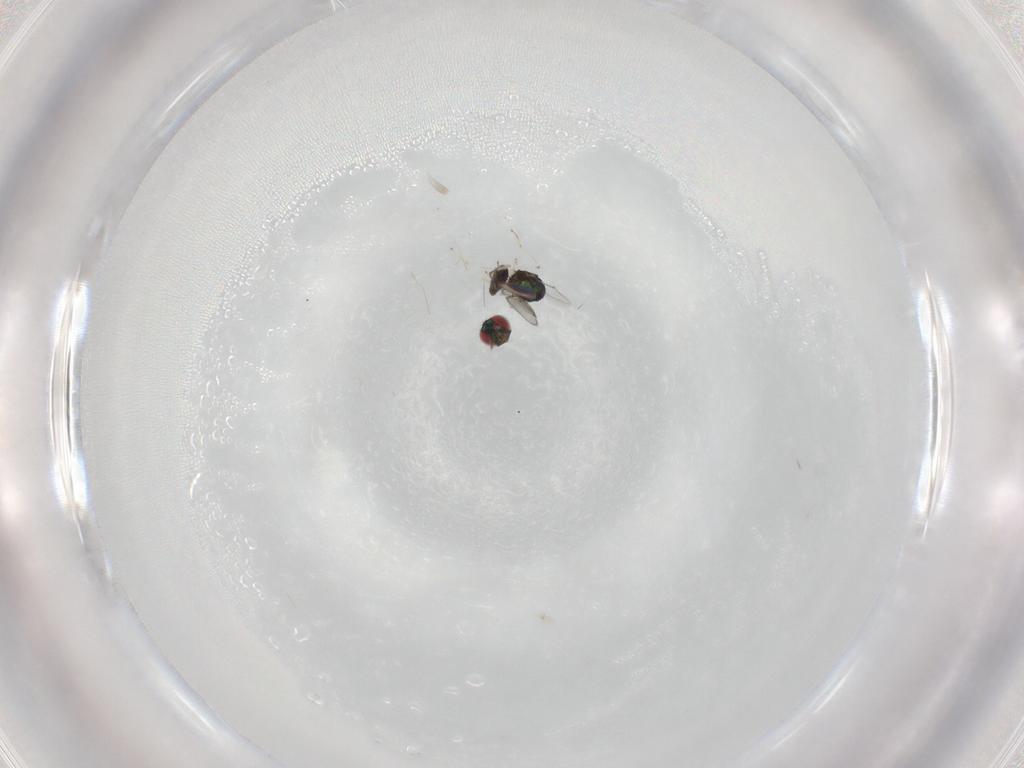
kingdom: Animalia
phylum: Arthropoda
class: Insecta
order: Hymenoptera
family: Eulophidae
